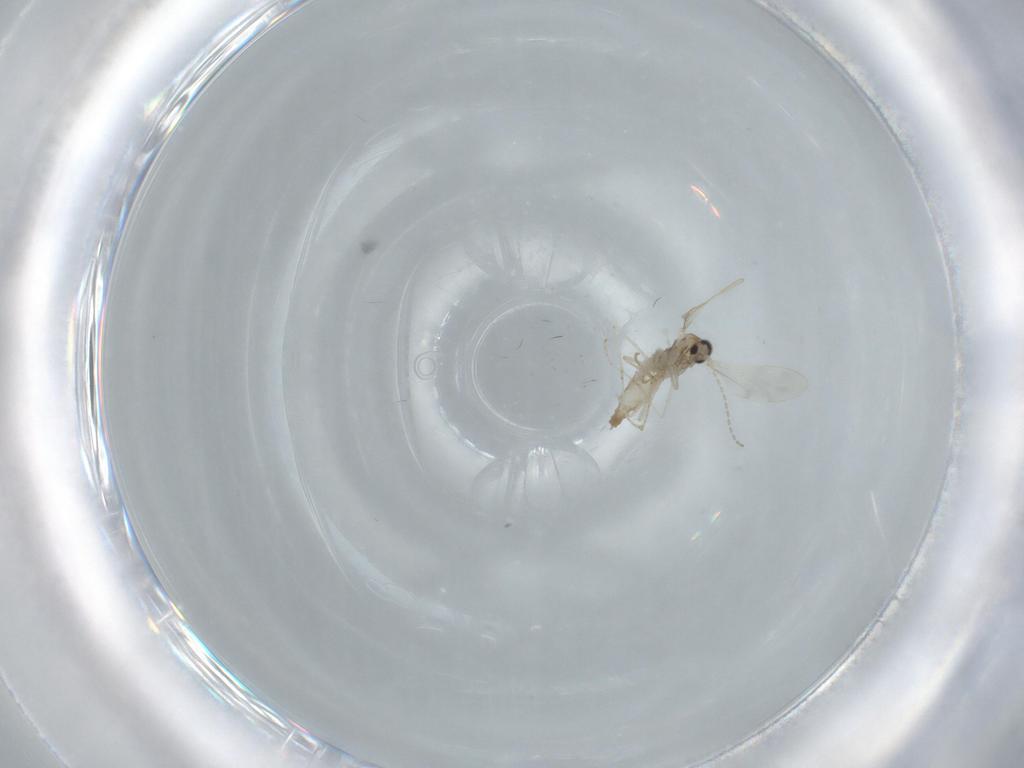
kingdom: Animalia
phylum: Arthropoda
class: Insecta
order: Diptera
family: Cecidomyiidae
